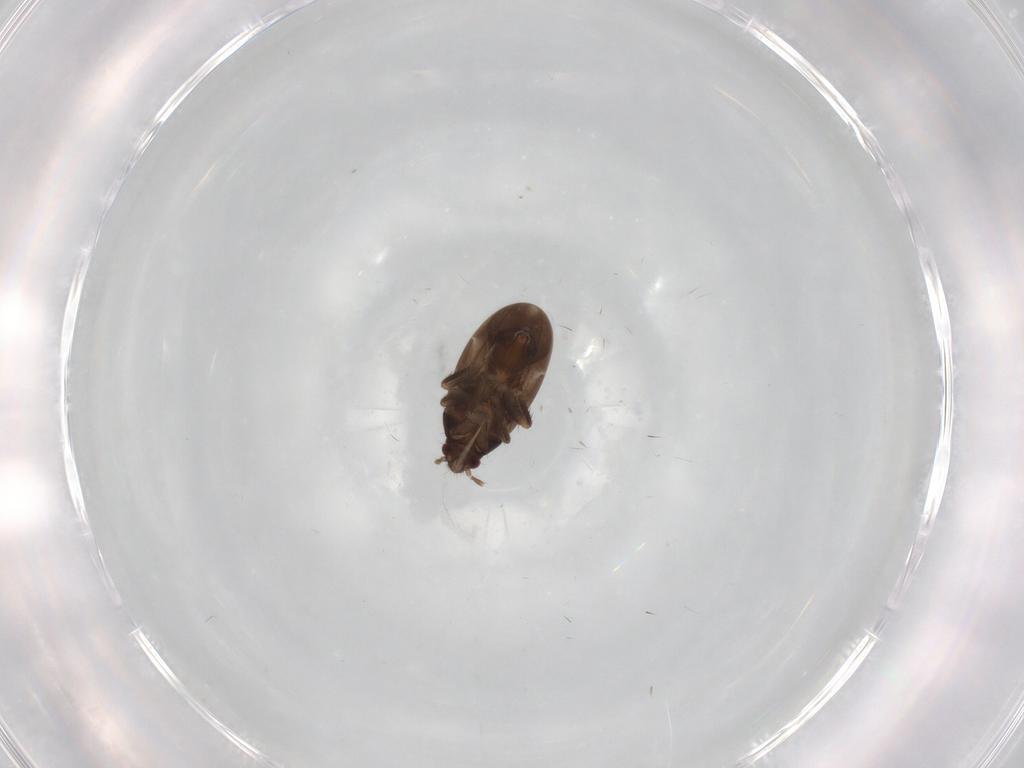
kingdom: Animalia
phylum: Arthropoda
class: Insecta
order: Hemiptera
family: Ceratocombidae
